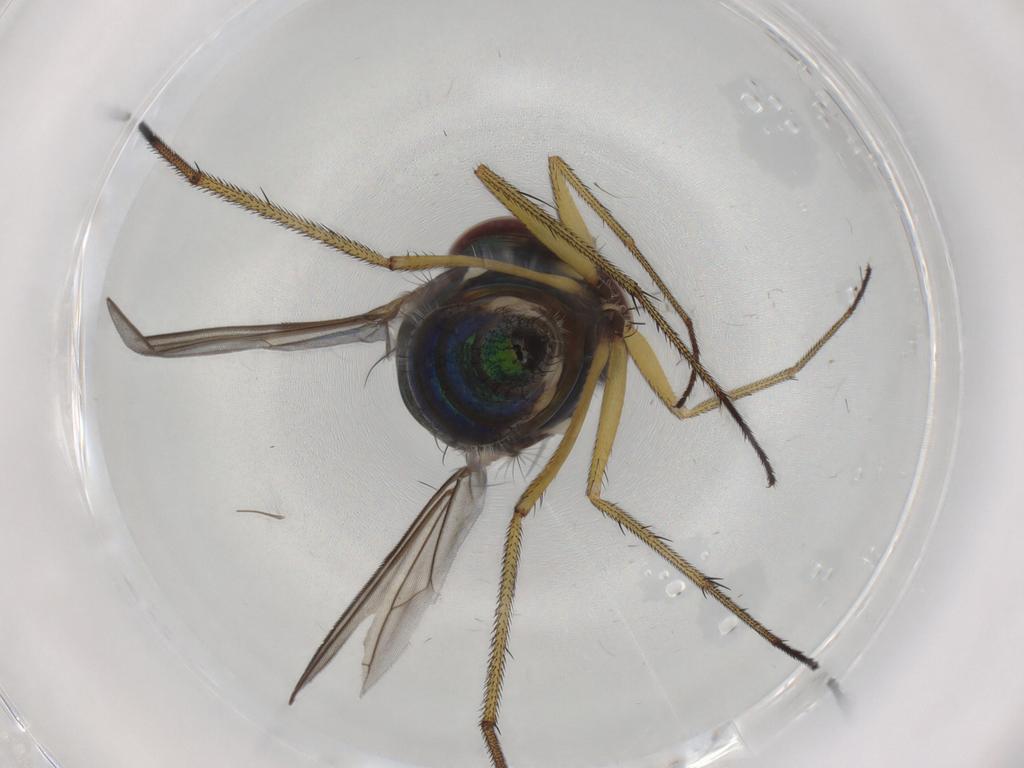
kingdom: Animalia
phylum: Arthropoda
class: Insecta
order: Diptera
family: Dolichopodidae
